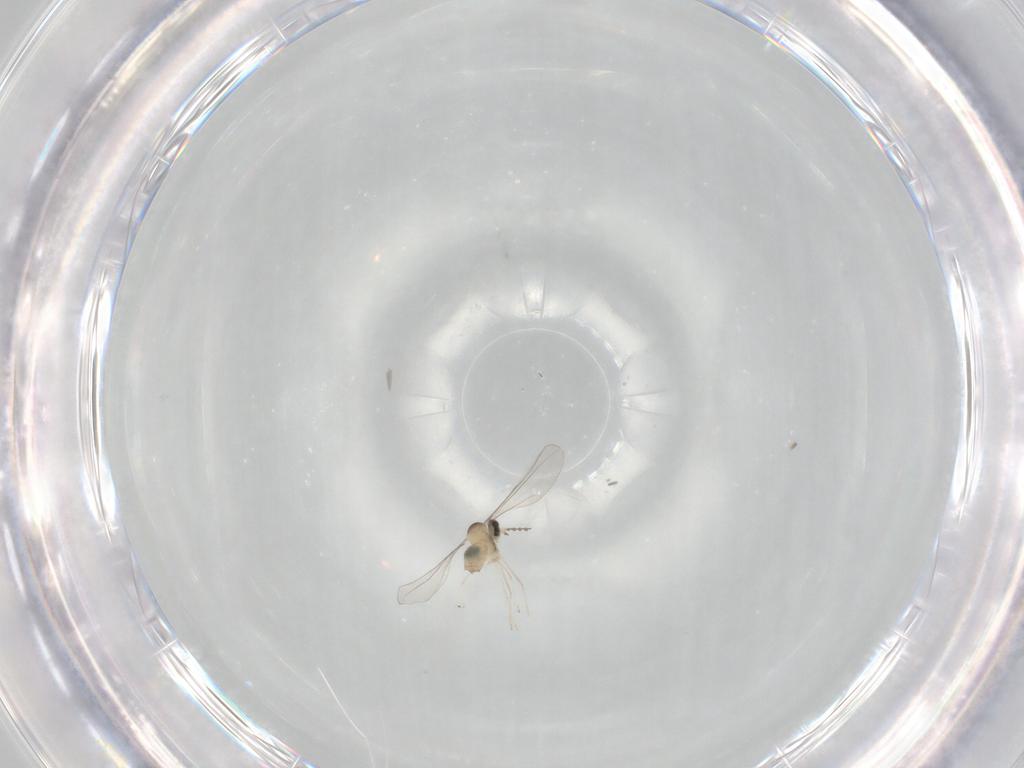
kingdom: Animalia
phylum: Arthropoda
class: Insecta
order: Diptera
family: Cecidomyiidae
